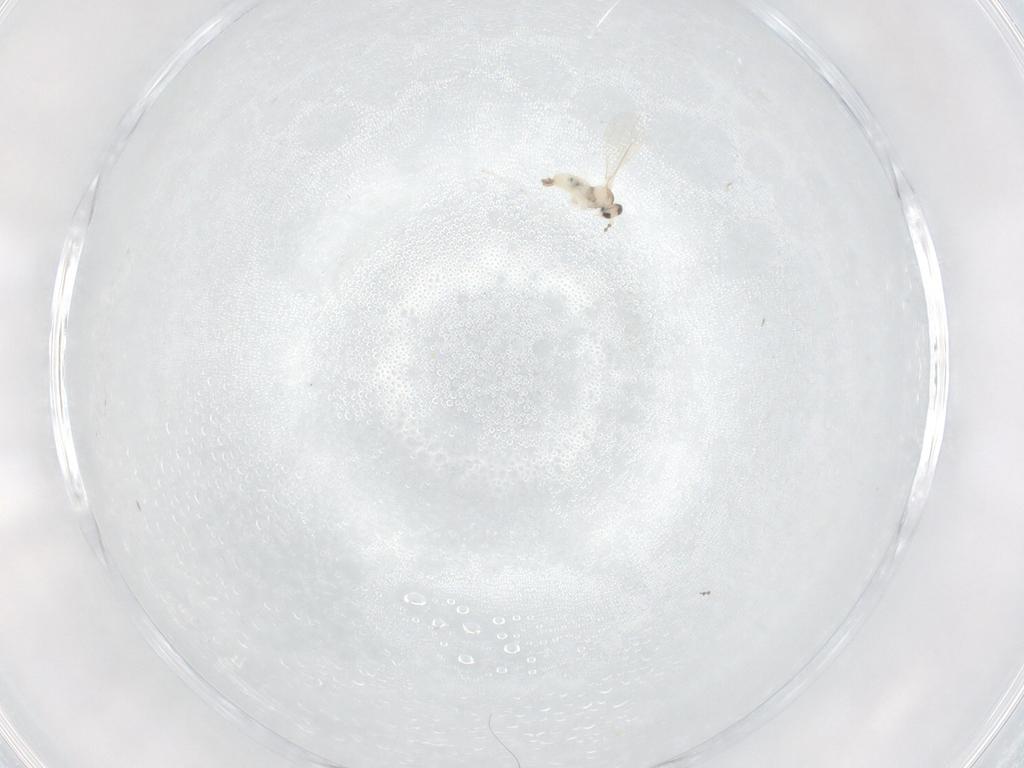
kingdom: Animalia
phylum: Arthropoda
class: Insecta
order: Diptera
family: Cecidomyiidae
